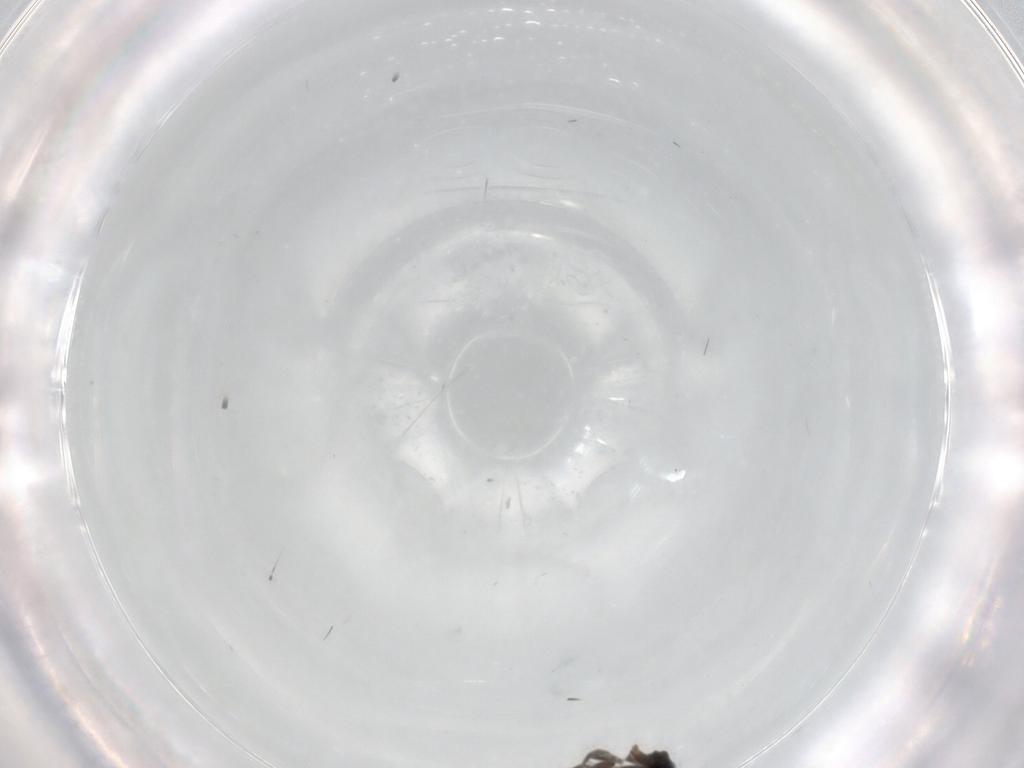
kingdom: Animalia
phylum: Arthropoda
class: Insecta
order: Diptera
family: Phoridae
